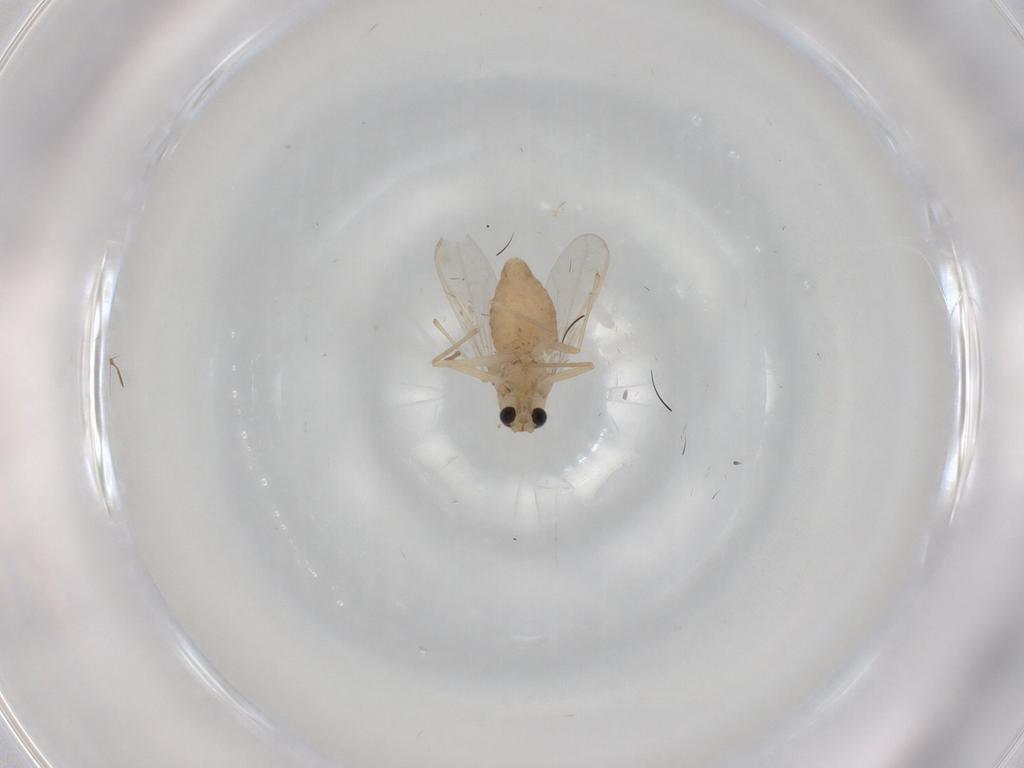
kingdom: Animalia
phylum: Arthropoda
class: Insecta
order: Diptera
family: Chironomidae
